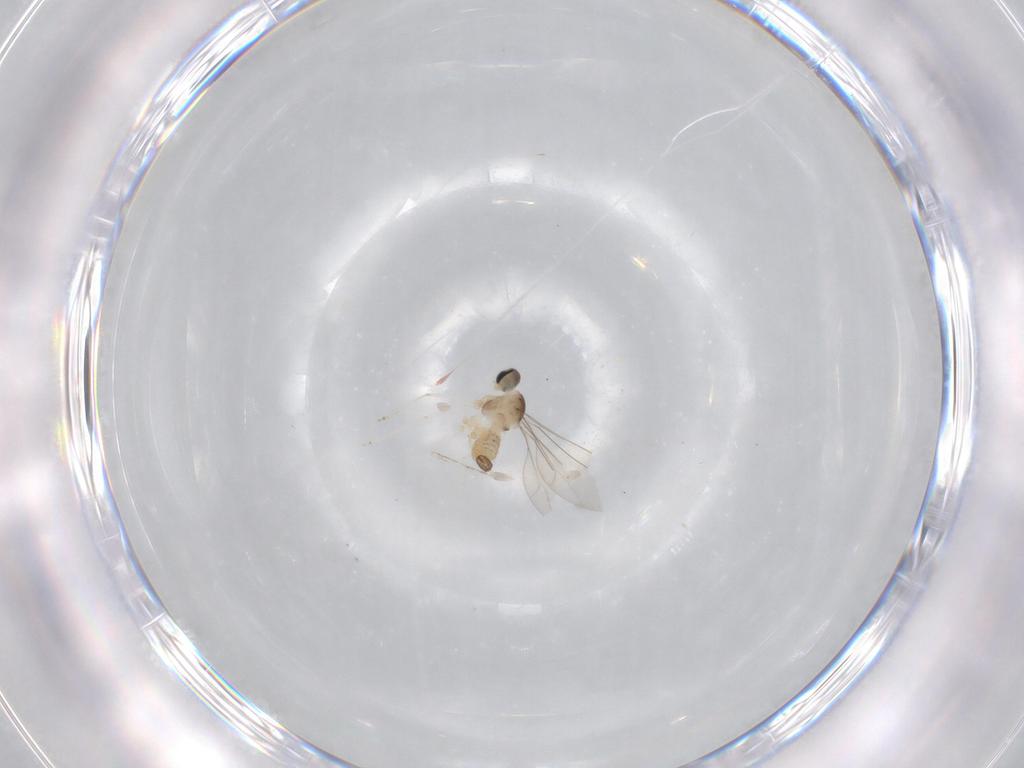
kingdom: Animalia
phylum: Arthropoda
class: Insecta
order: Diptera
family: Cecidomyiidae
